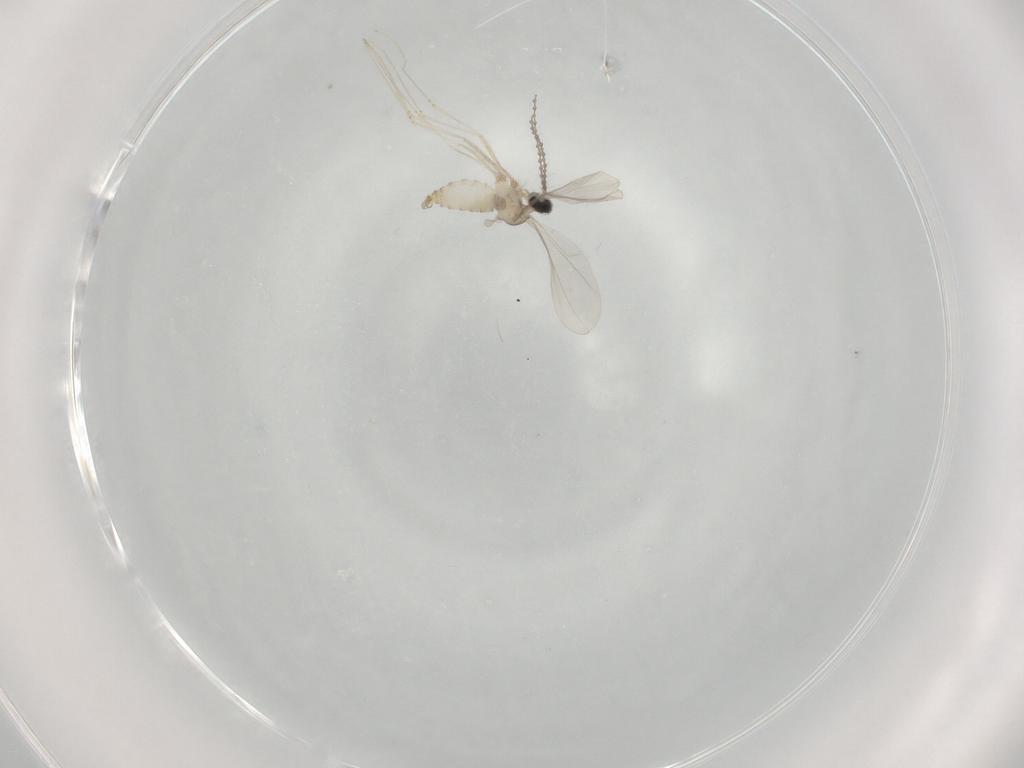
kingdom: Animalia
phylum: Arthropoda
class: Insecta
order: Diptera
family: Cecidomyiidae
